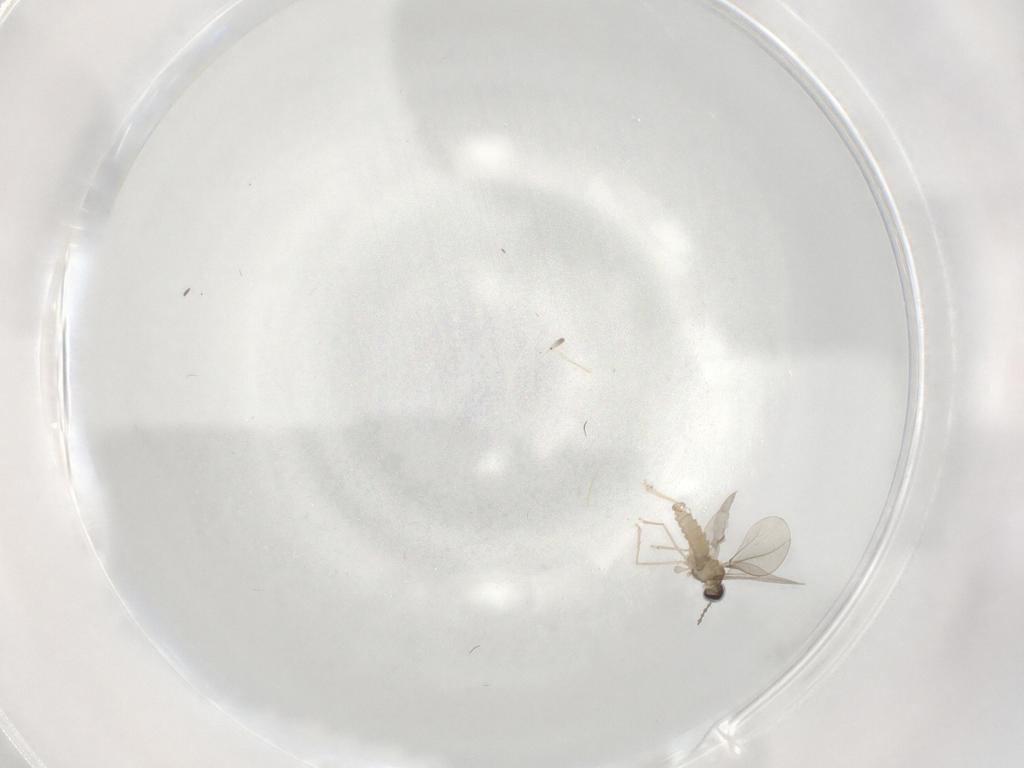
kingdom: Animalia
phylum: Arthropoda
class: Insecta
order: Diptera
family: Cecidomyiidae
